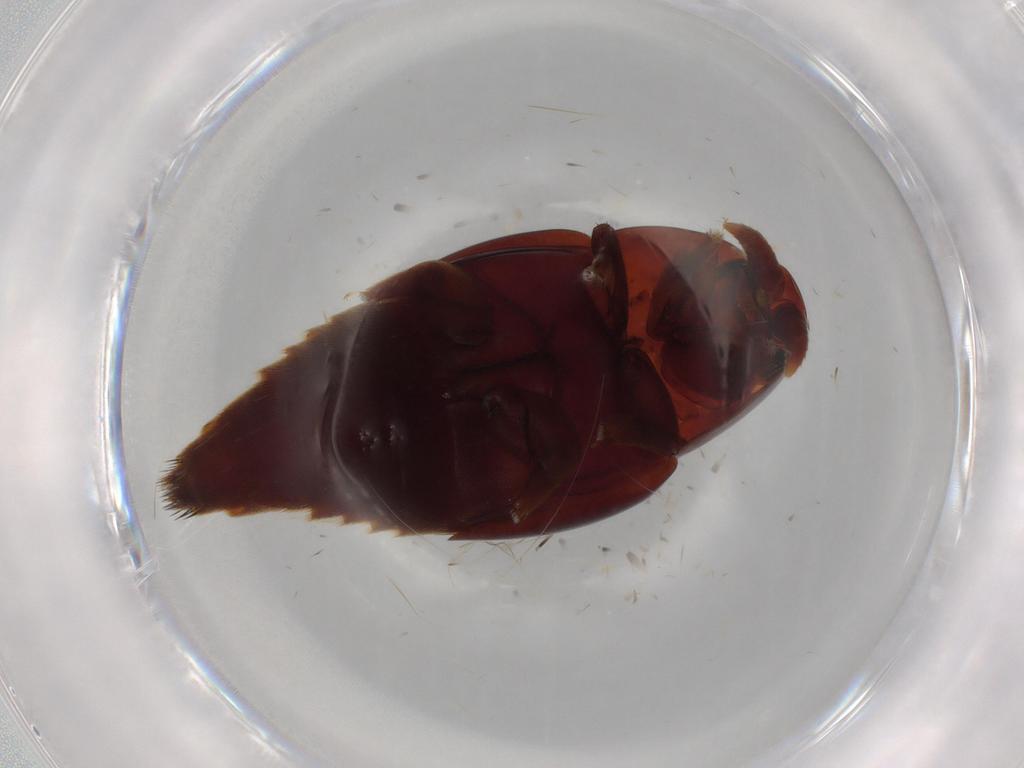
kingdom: Animalia
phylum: Arthropoda
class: Insecta
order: Coleoptera
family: Staphylinidae
